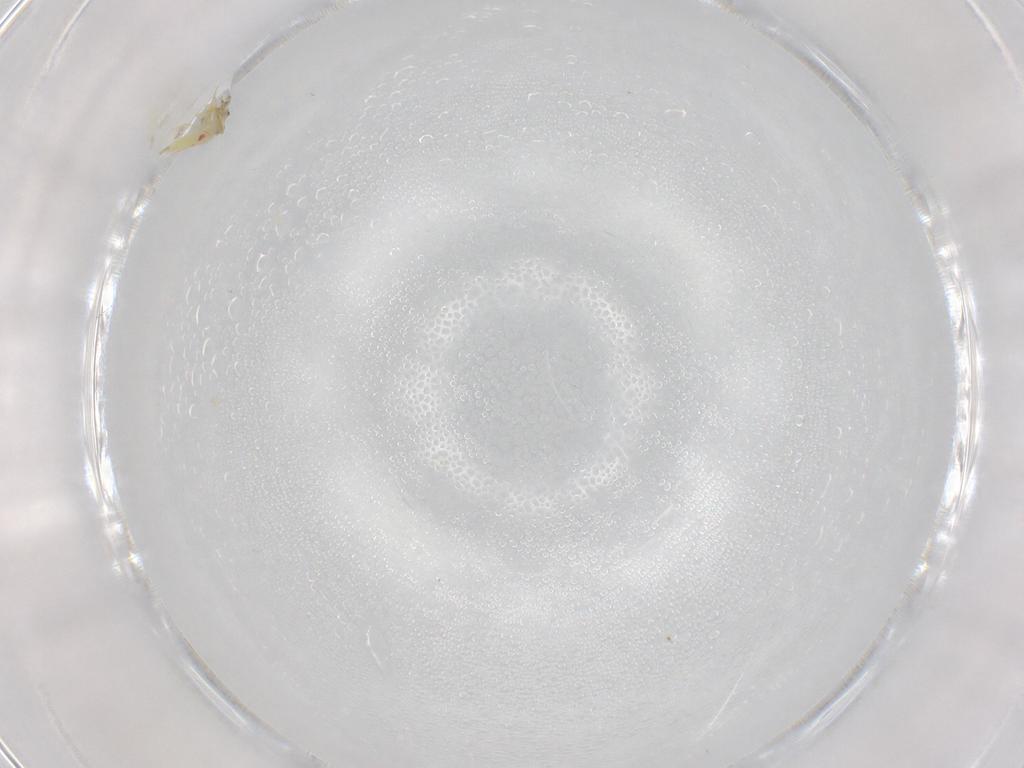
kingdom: Animalia
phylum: Arthropoda
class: Insecta
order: Hemiptera
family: Aleyrodidae
